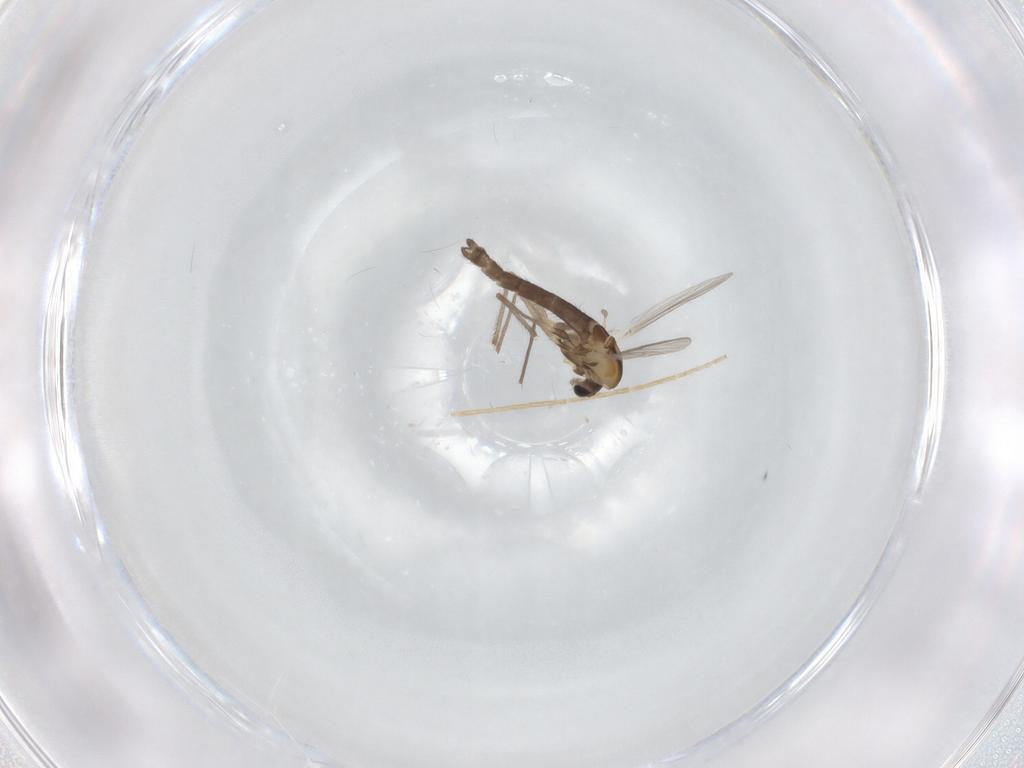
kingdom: Animalia
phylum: Arthropoda
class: Insecta
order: Diptera
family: Chironomidae
